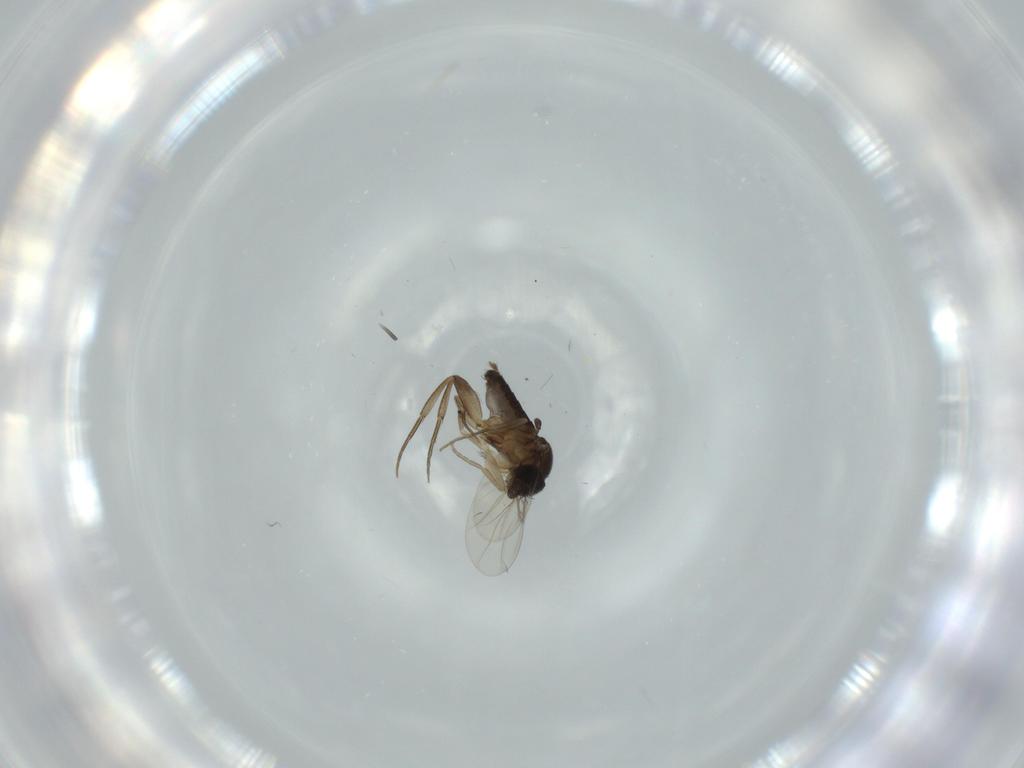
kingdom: Animalia
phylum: Arthropoda
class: Insecta
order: Diptera
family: Phoridae
